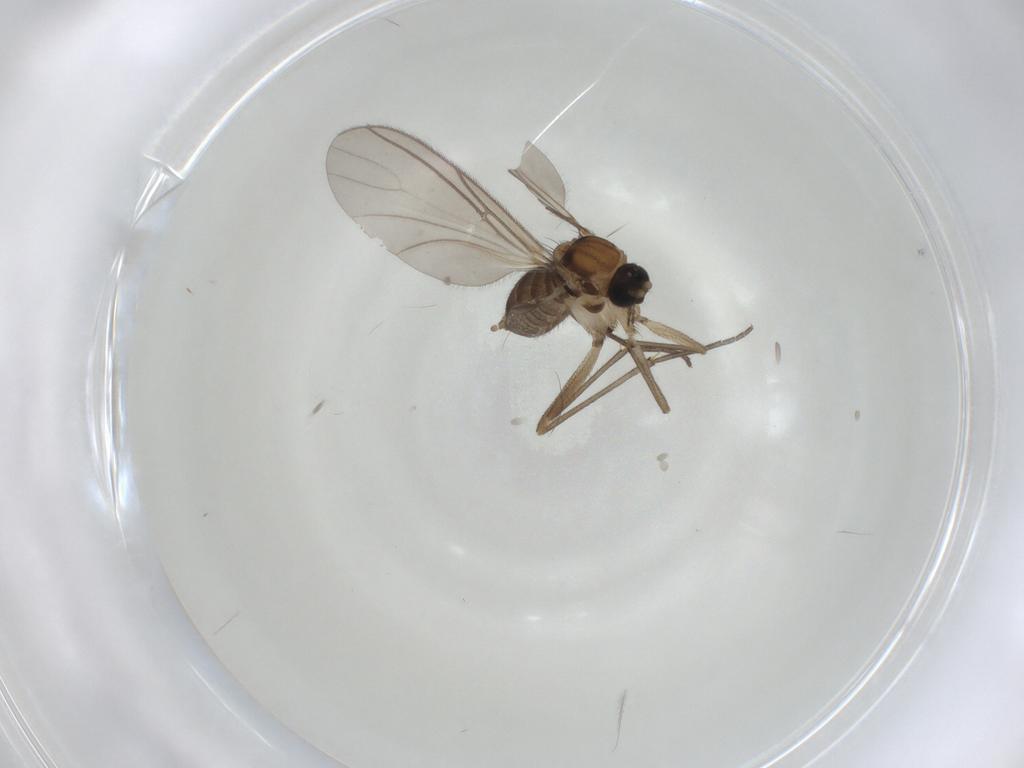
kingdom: Animalia
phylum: Arthropoda
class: Insecta
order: Diptera
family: Sciaridae
